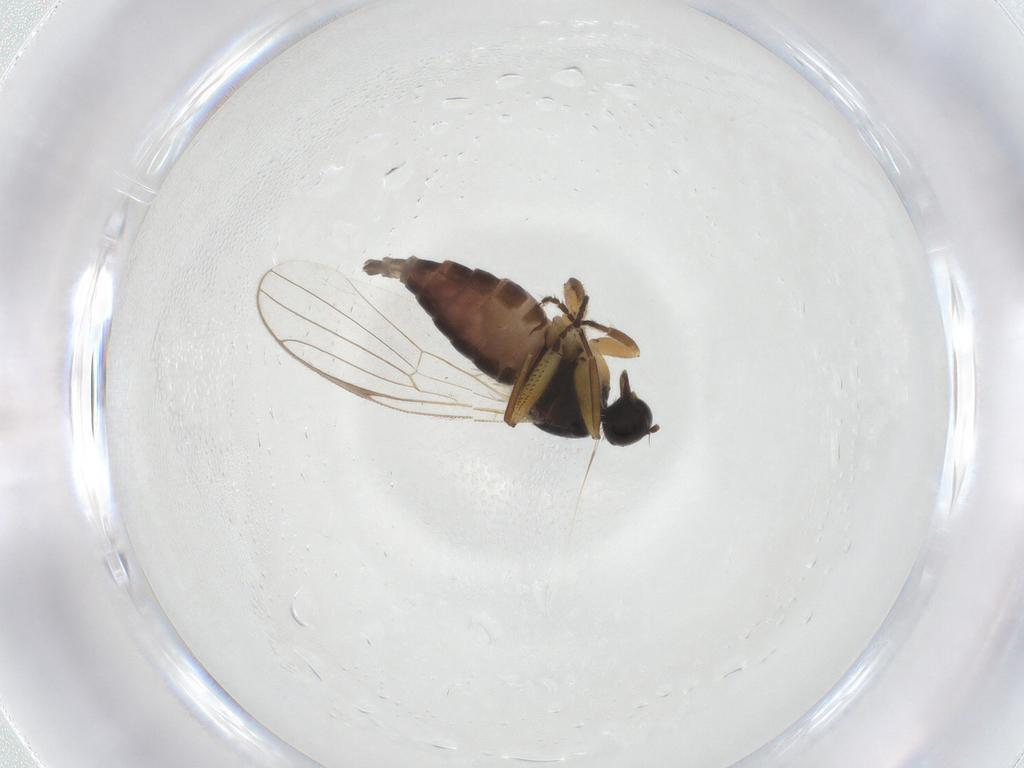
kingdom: Animalia
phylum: Arthropoda
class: Insecta
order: Diptera
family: Hybotidae
